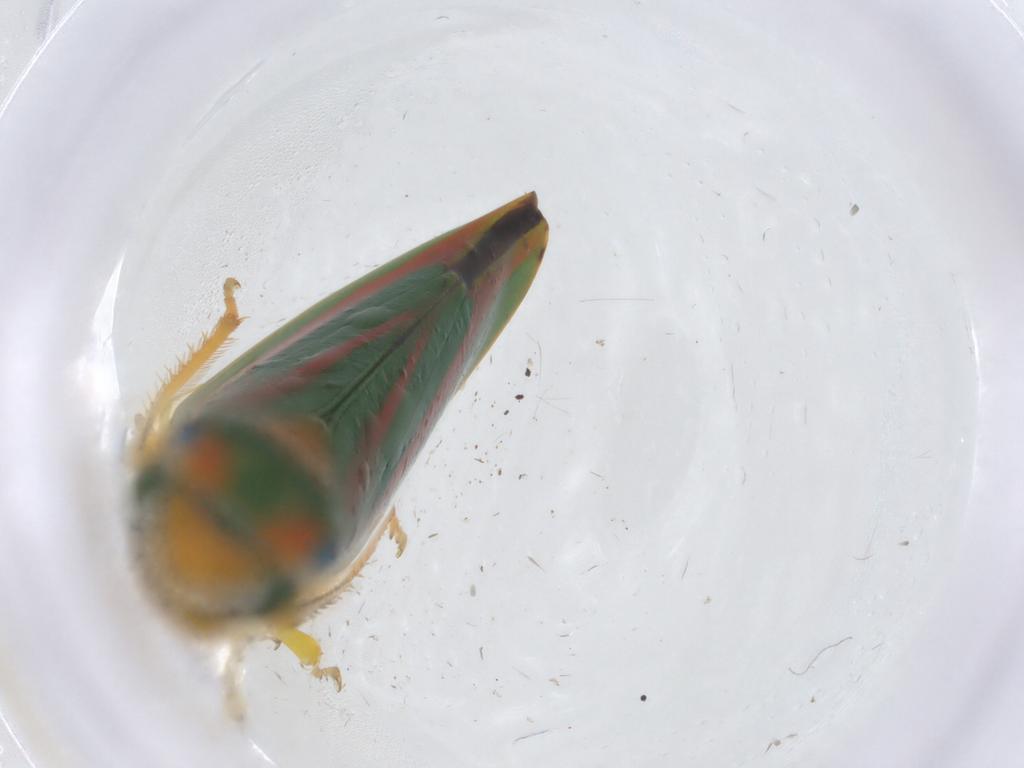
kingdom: Animalia
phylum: Arthropoda
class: Insecta
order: Hemiptera
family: Cicadellidae
